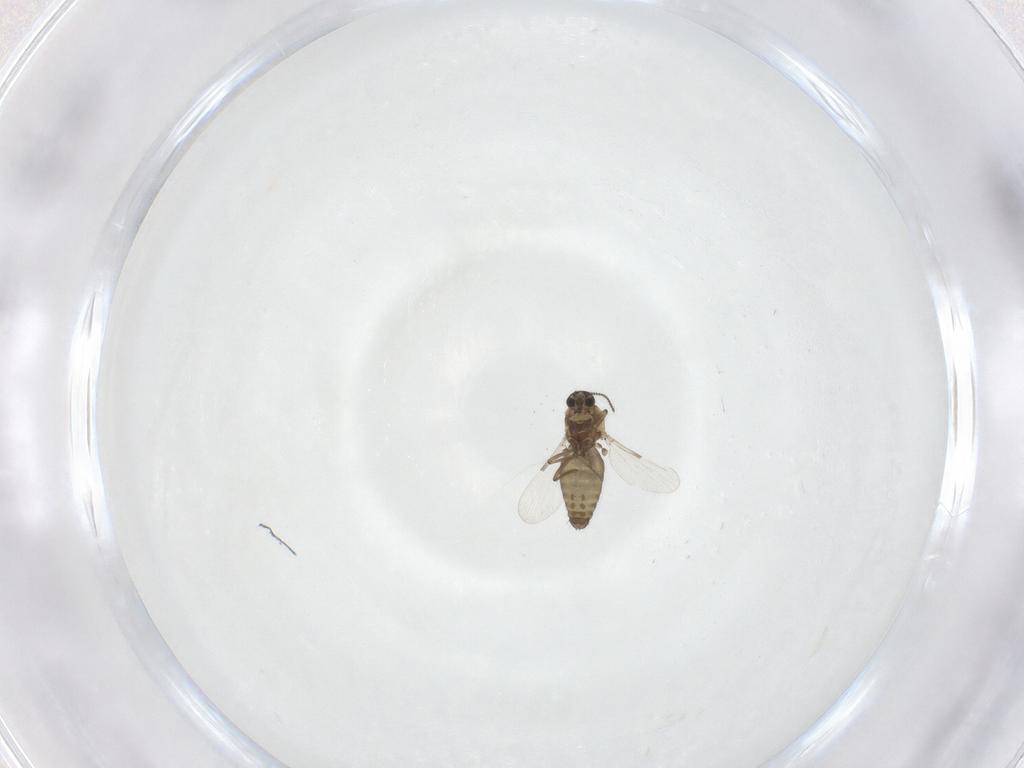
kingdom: Animalia
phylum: Arthropoda
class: Insecta
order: Diptera
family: Ceratopogonidae
